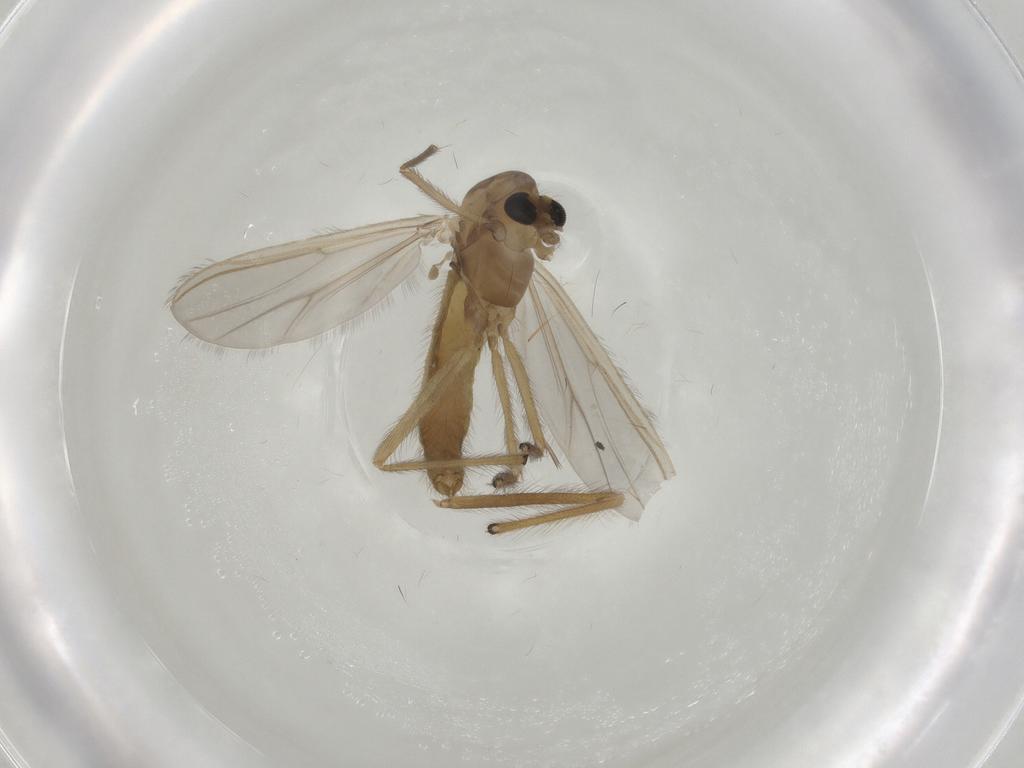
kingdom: Animalia
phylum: Arthropoda
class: Insecta
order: Diptera
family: Chironomidae
